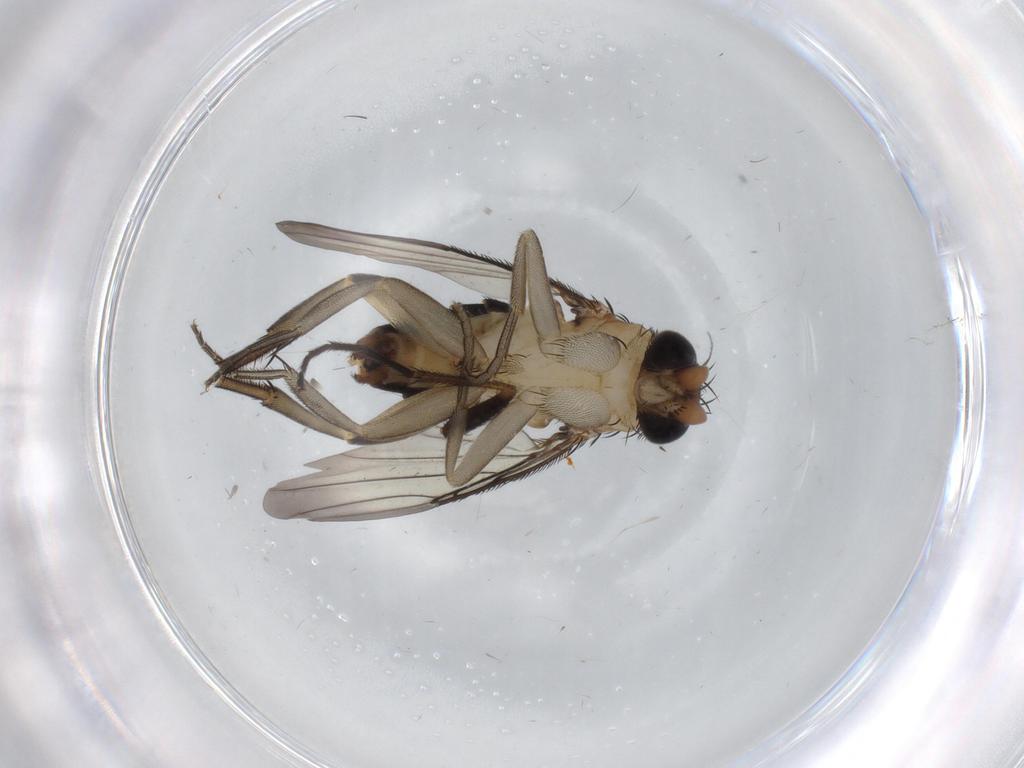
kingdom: Animalia
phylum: Arthropoda
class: Insecta
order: Diptera
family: Phoridae
